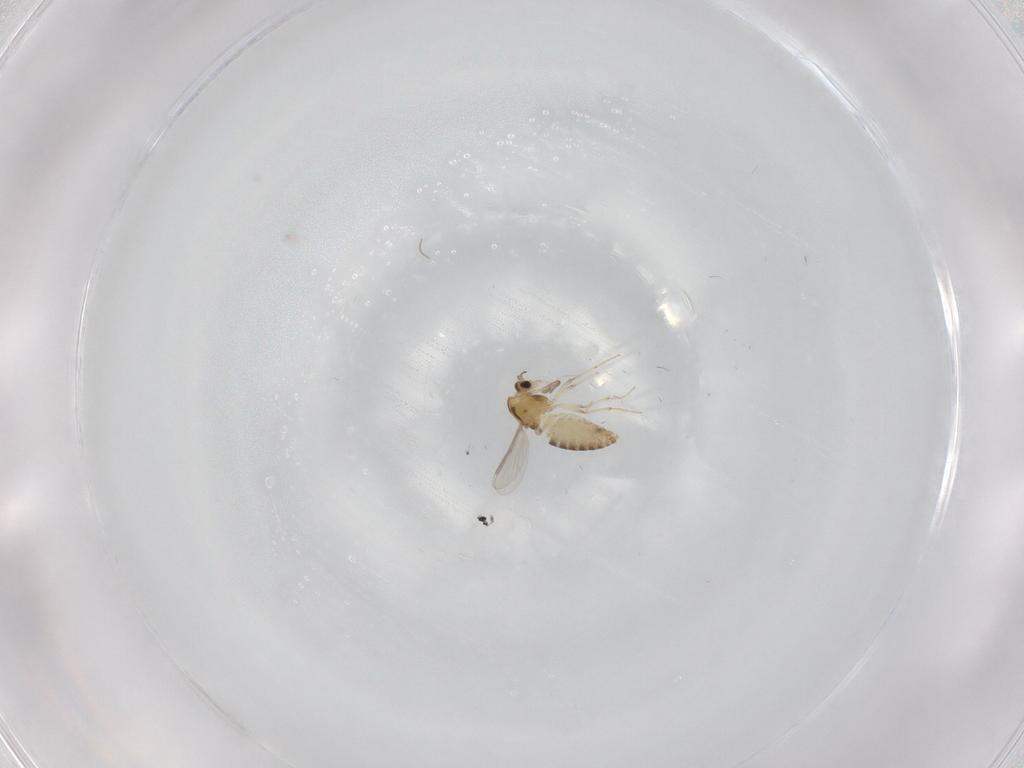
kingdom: Animalia
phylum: Arthropoda
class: Insecta
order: Diptera
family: Chironomidae
